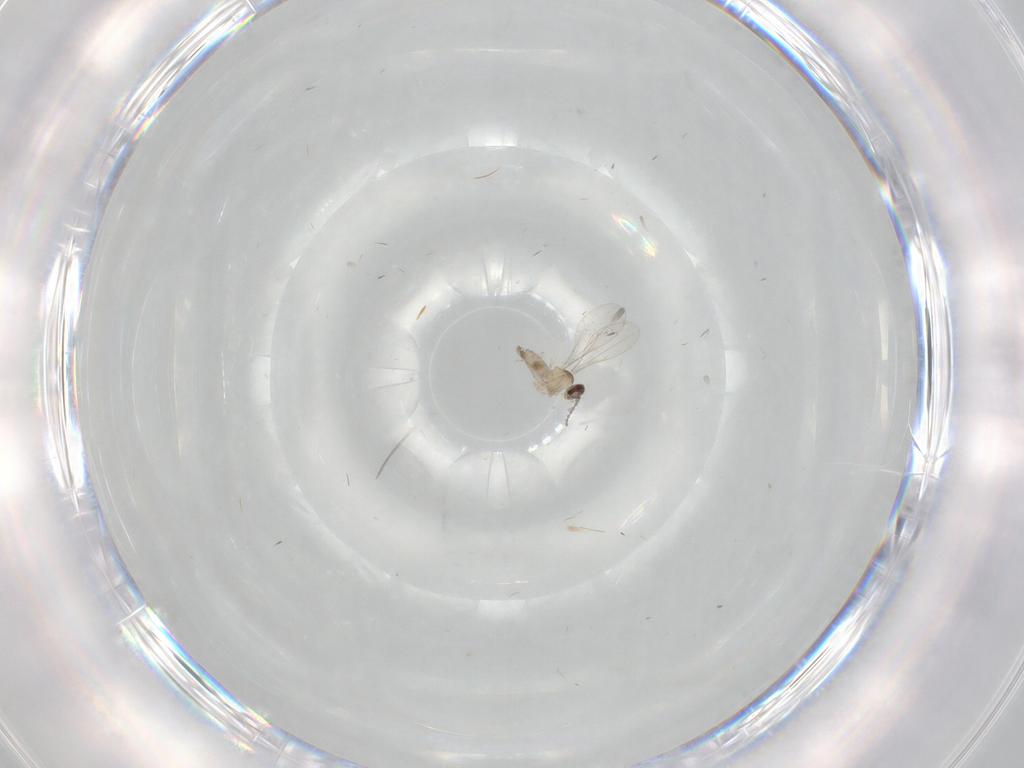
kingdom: Animalia
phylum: Arthropoda
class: Insecta
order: Diptera
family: Cecidomyiidae
